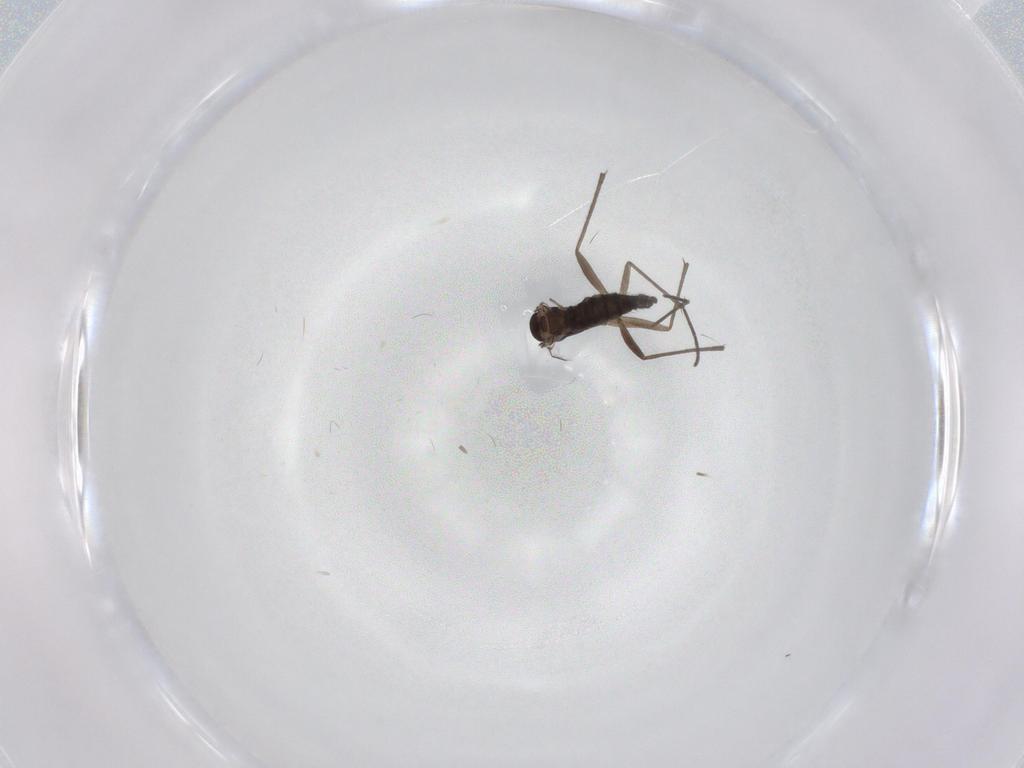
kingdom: Animalia
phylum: Arthropoda
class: Insecta
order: Diptera
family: Sciaridae
